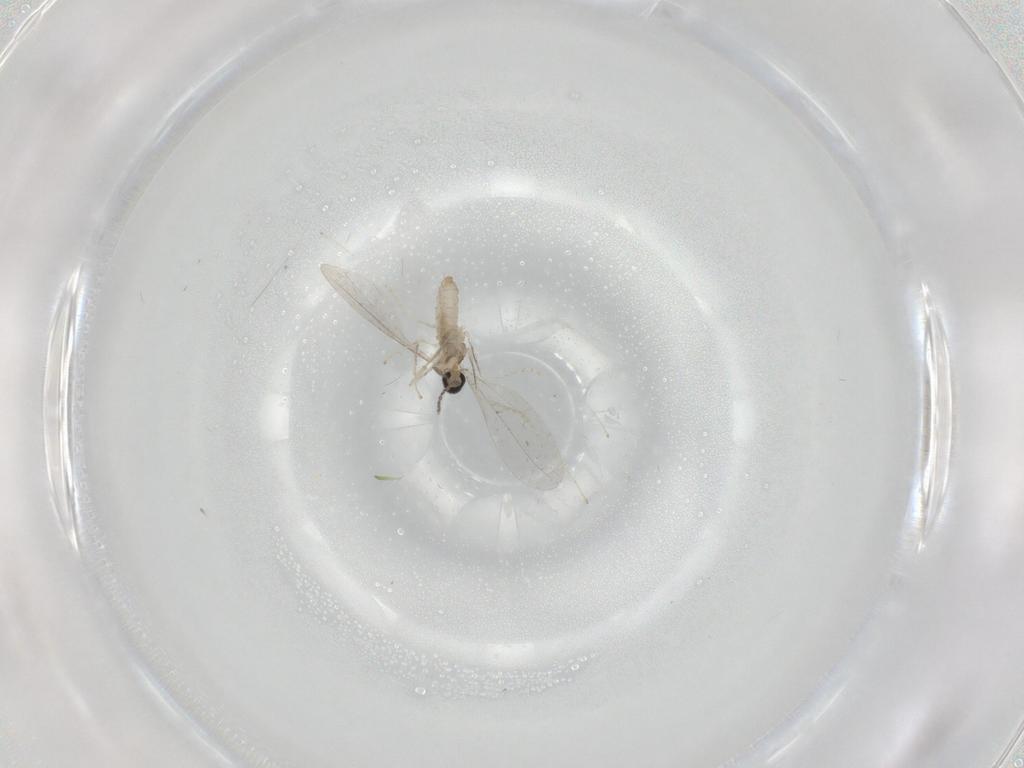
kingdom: Animalia
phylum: Arthropoda
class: Insecta
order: Diptera
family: Cecidomyiidae
